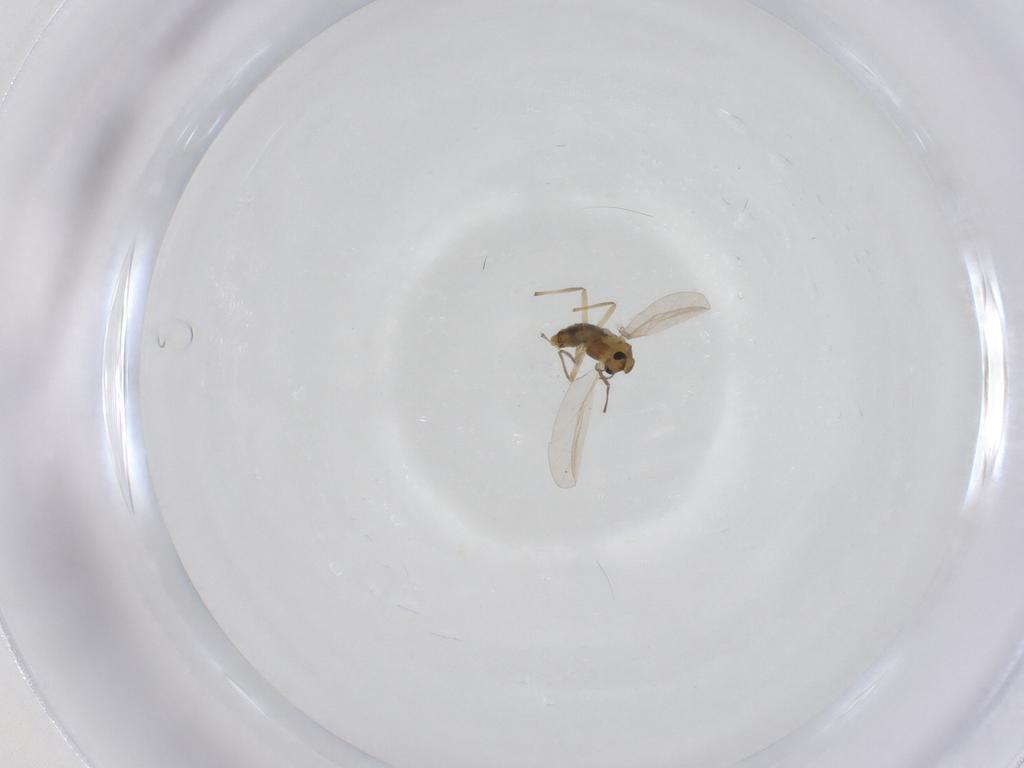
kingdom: Animalia
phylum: Arthropoda
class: Insecta
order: Diptera
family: Chironomidae
